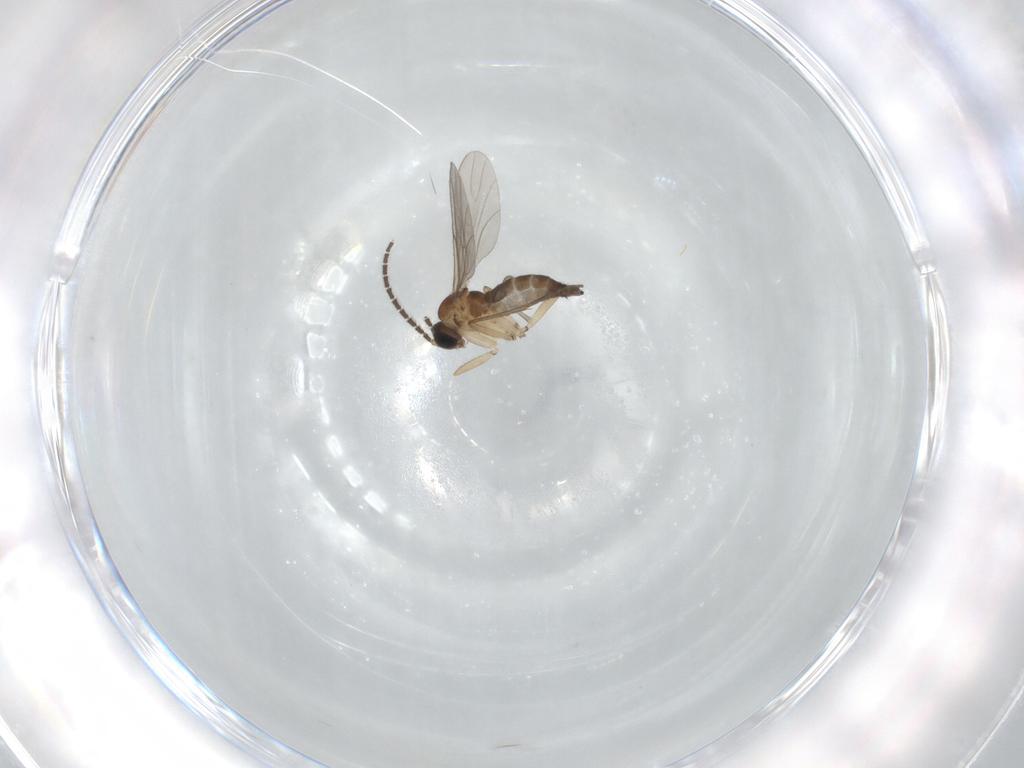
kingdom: Animalia
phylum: Arthropoda
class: Insecta
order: Diptera
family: Sciaridae
